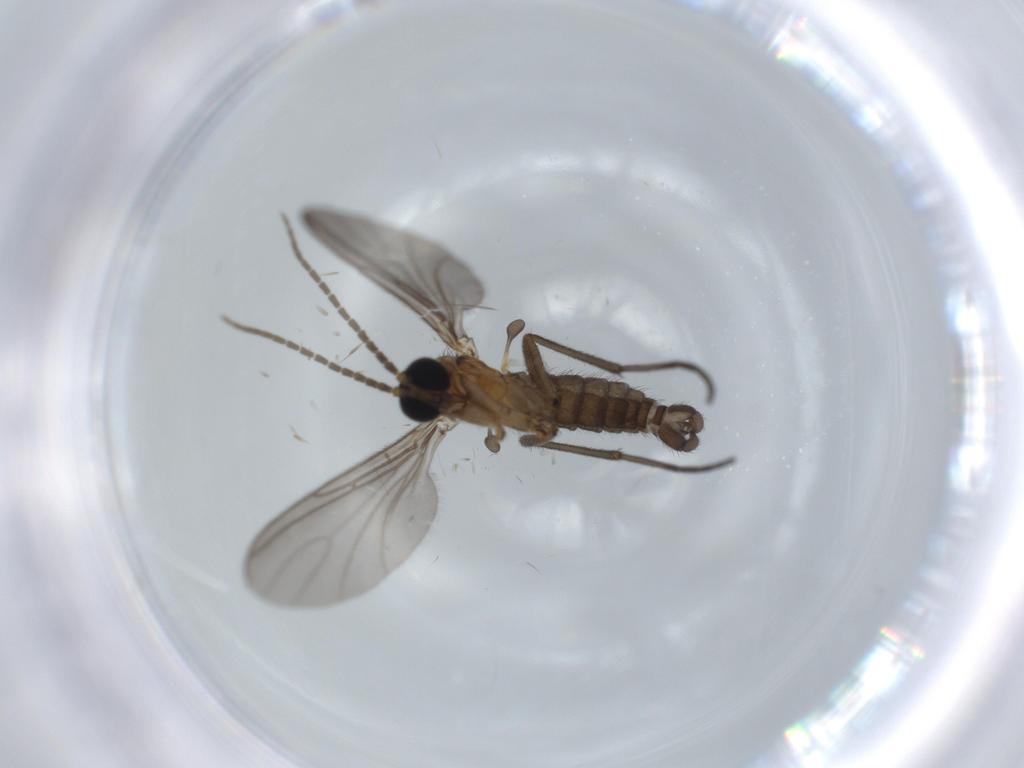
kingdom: Animalia
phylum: Arthropoda
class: Insecta
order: Diptera
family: Sciaridae
